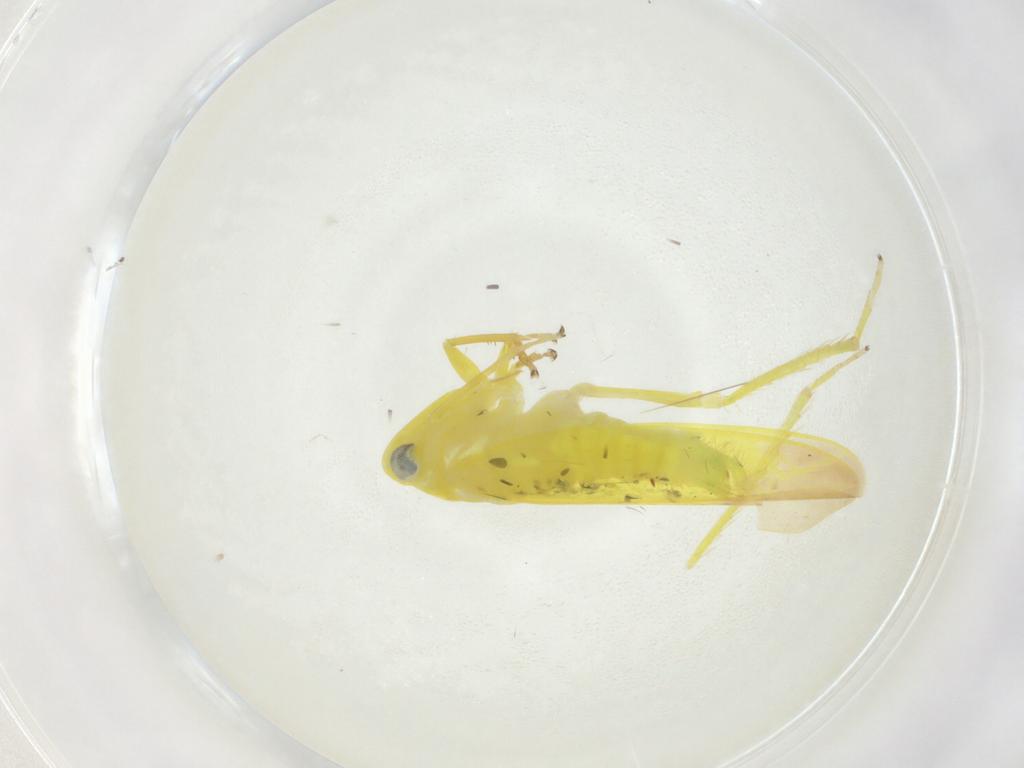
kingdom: Animalia
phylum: Arthropoda
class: Insecta
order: Hemiptera
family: Cicadellidae
